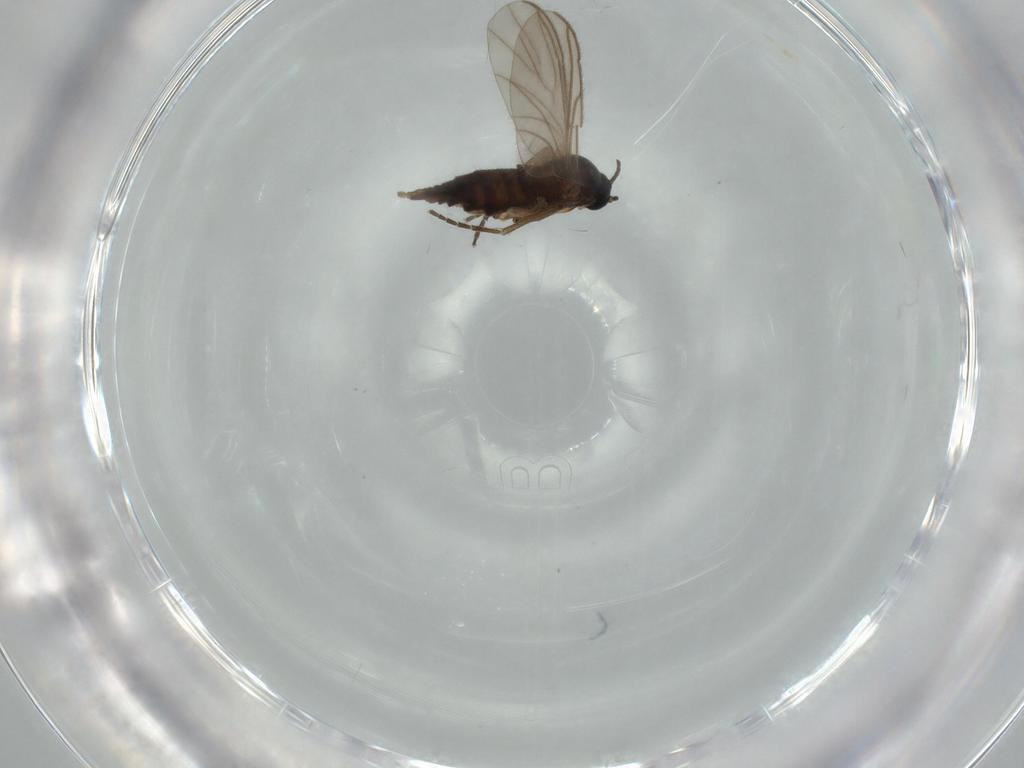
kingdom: Animalia
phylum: Arthropoda
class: Insecta
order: Diptera
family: Sciaridae
